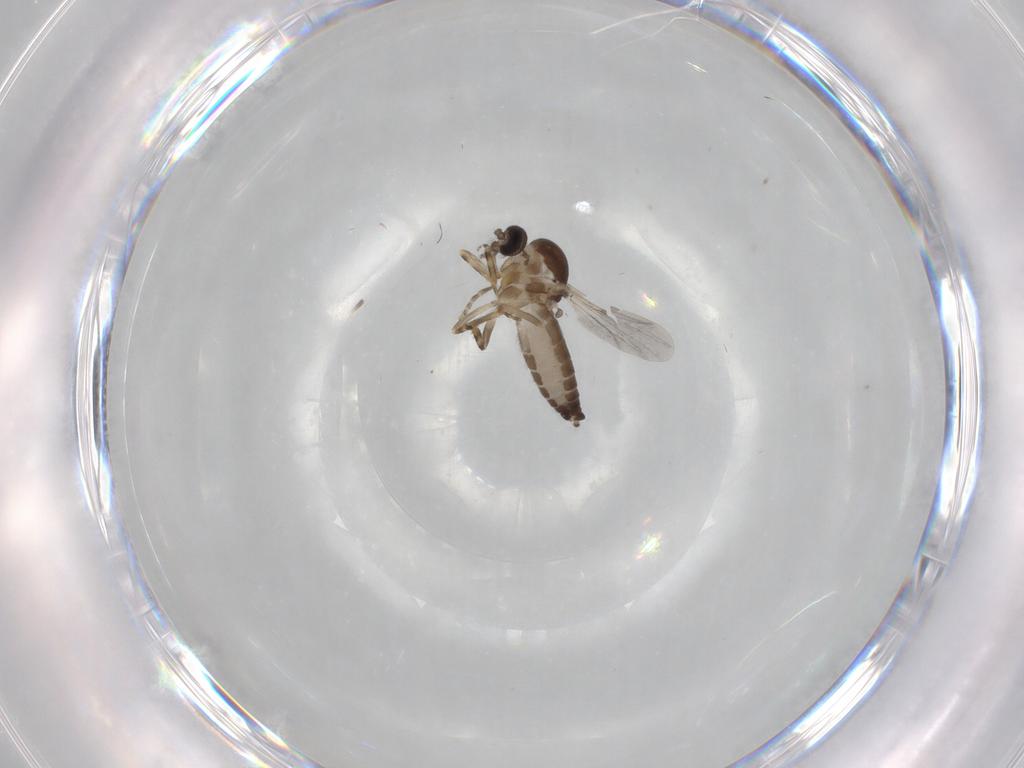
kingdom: Animalia
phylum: Arthropoda
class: Insecta
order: Diptera
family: Ceratopogonidae
